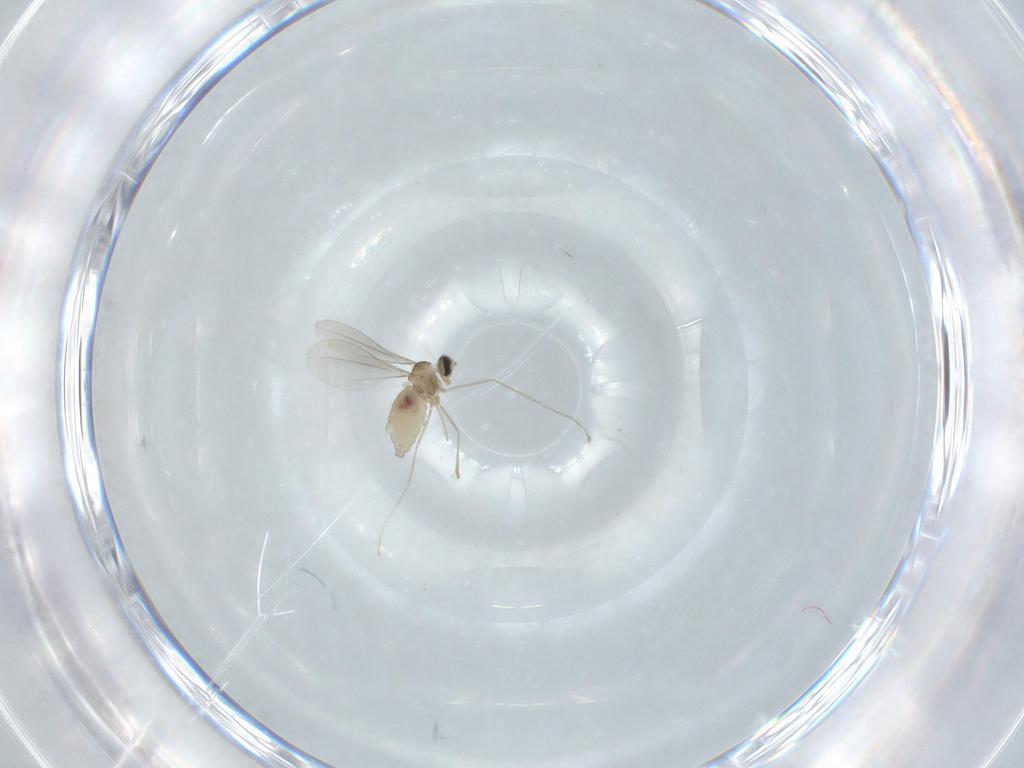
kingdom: Animalia
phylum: Arthropoda
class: Insecta
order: Diptera
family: Cecidomyiidae
